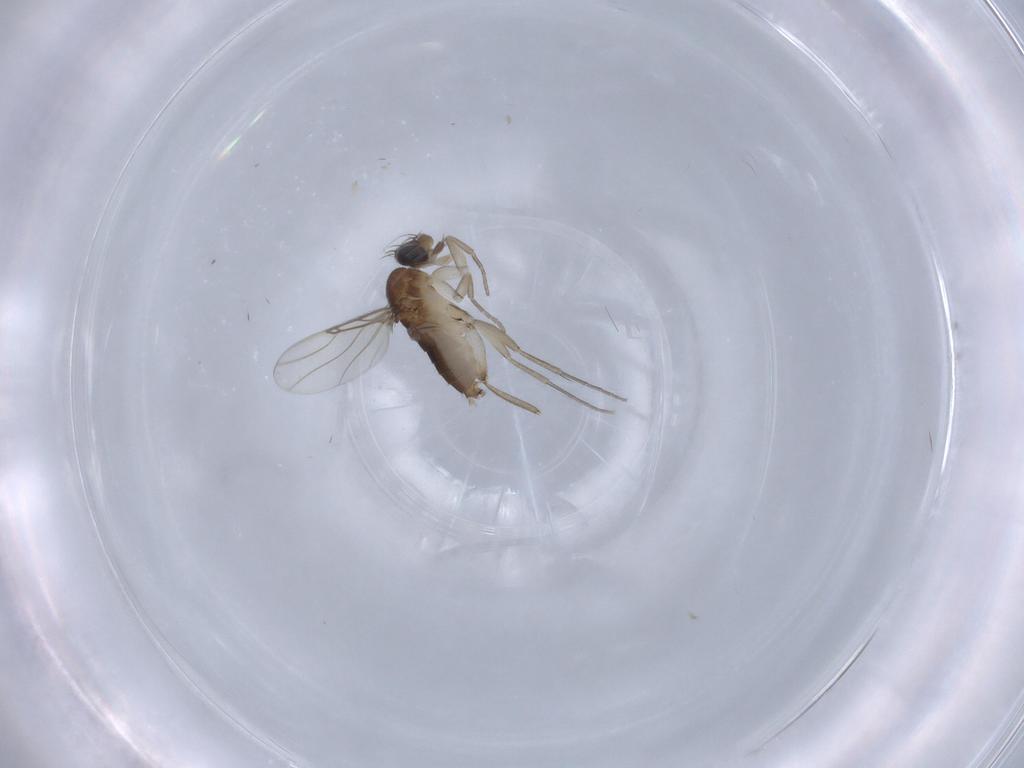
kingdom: Animalia
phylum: Arthropoda
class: Insecta
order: Diptera
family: Phoridae
